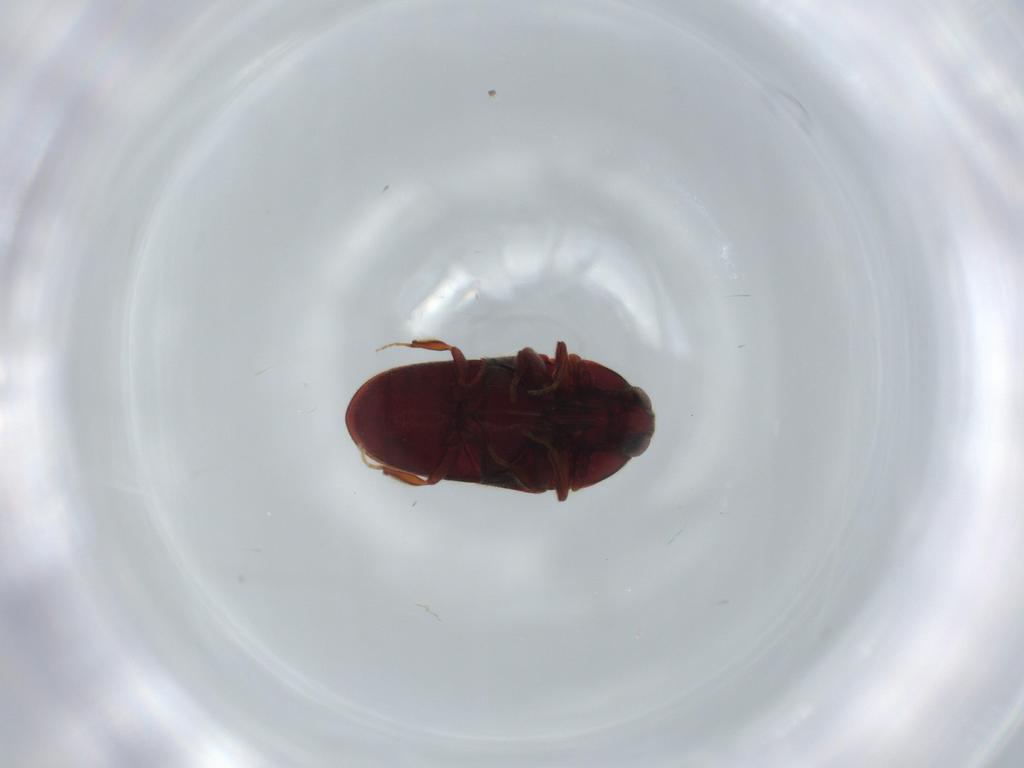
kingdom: Animalia
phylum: Arthropoda
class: Insecta
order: Coleoptera
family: Throscidae
